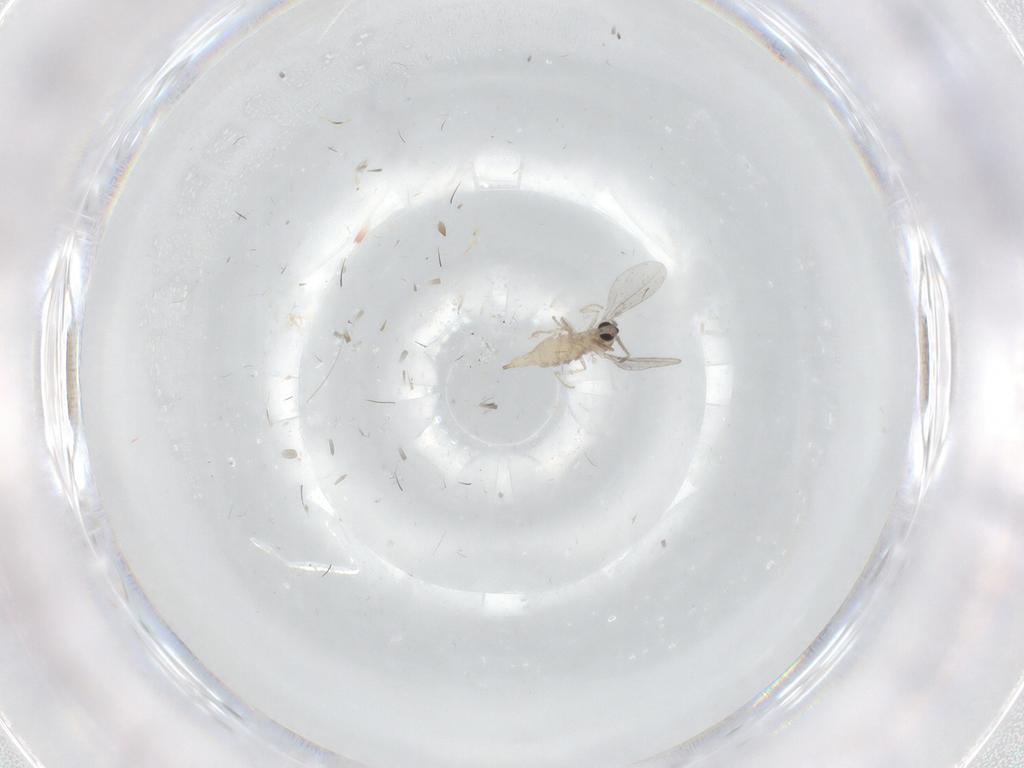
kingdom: Animalia
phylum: Arthropoda
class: Insecta
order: Diptera
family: Cecidomyiidae
